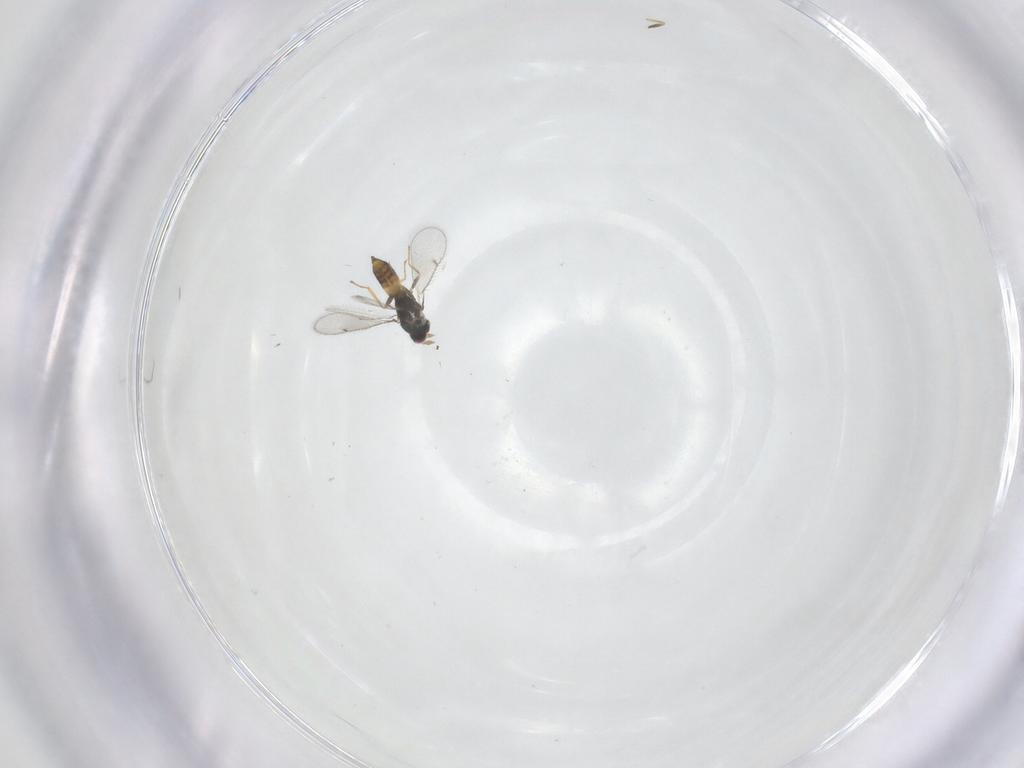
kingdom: Animalia
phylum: Arthropoda
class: Insecta
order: Hymenoptera
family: Eulophidae
